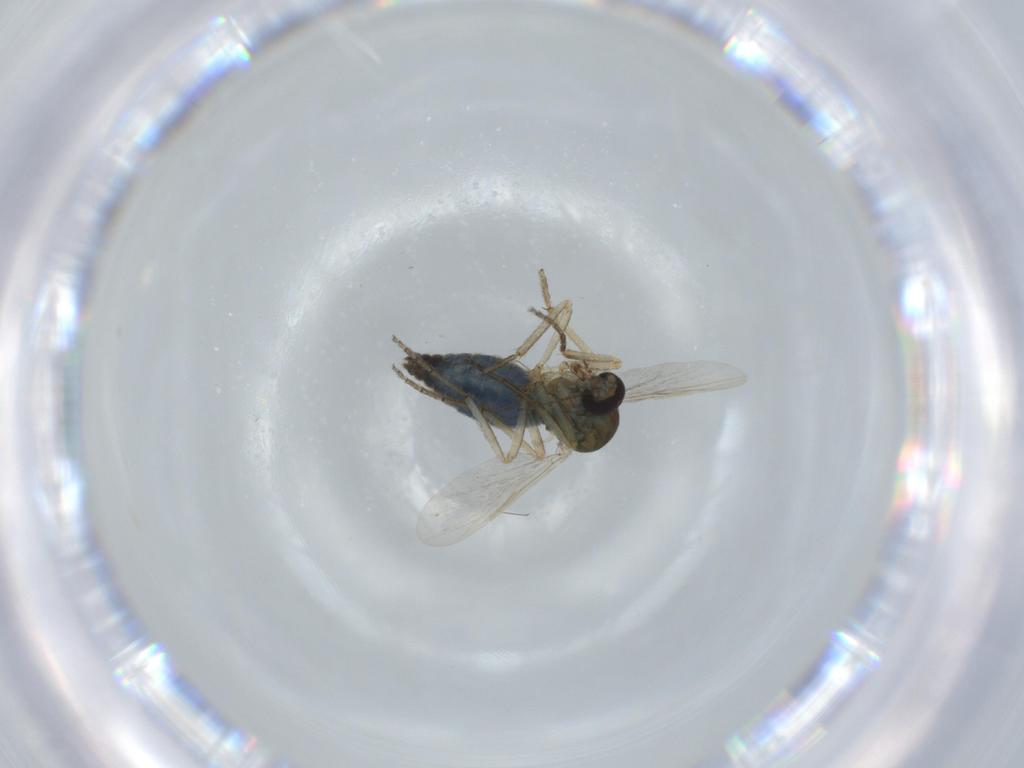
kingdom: Animalia
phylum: Arthropoda
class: Insecta
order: Diptera
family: Ceratopogonidae
